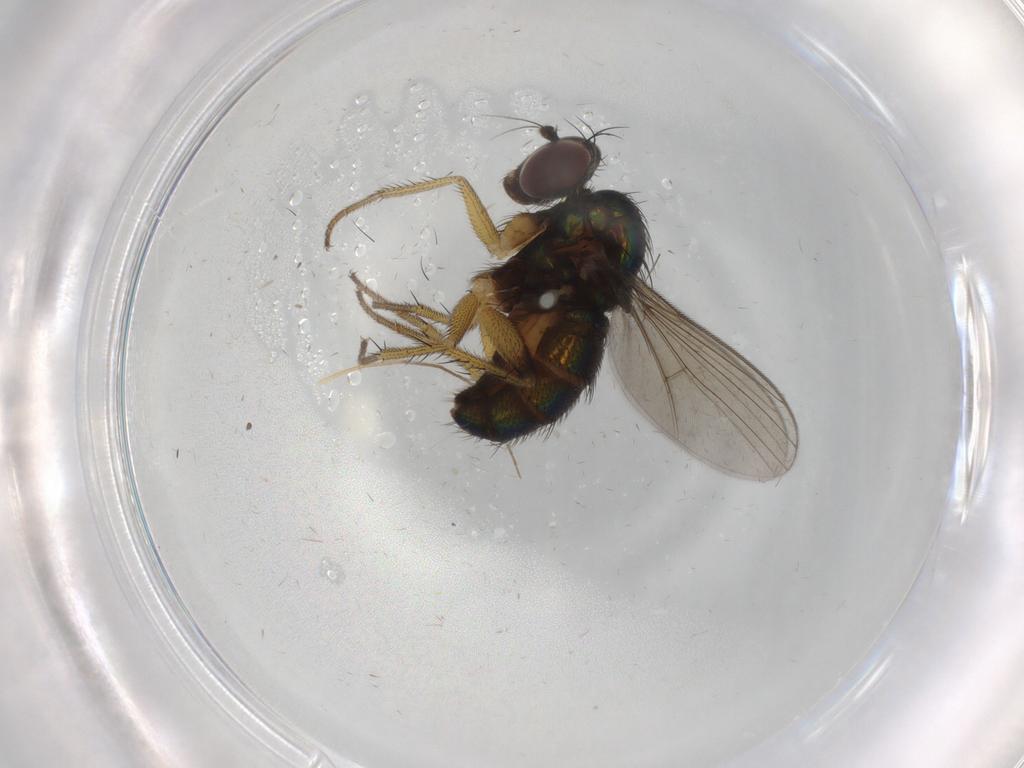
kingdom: Animalia
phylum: Arthropoda
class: Insecta
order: Diptera
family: Dolichopodidae
